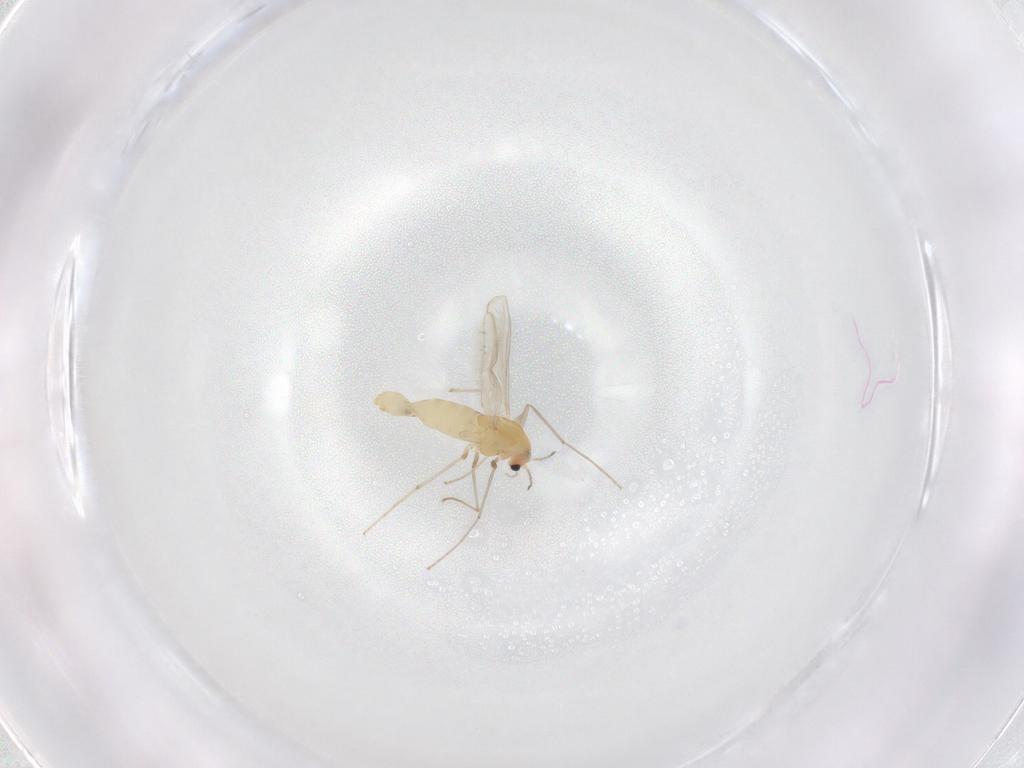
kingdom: Animalia
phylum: Arthropoda
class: Insecta
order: Diptera
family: Chironomidae
